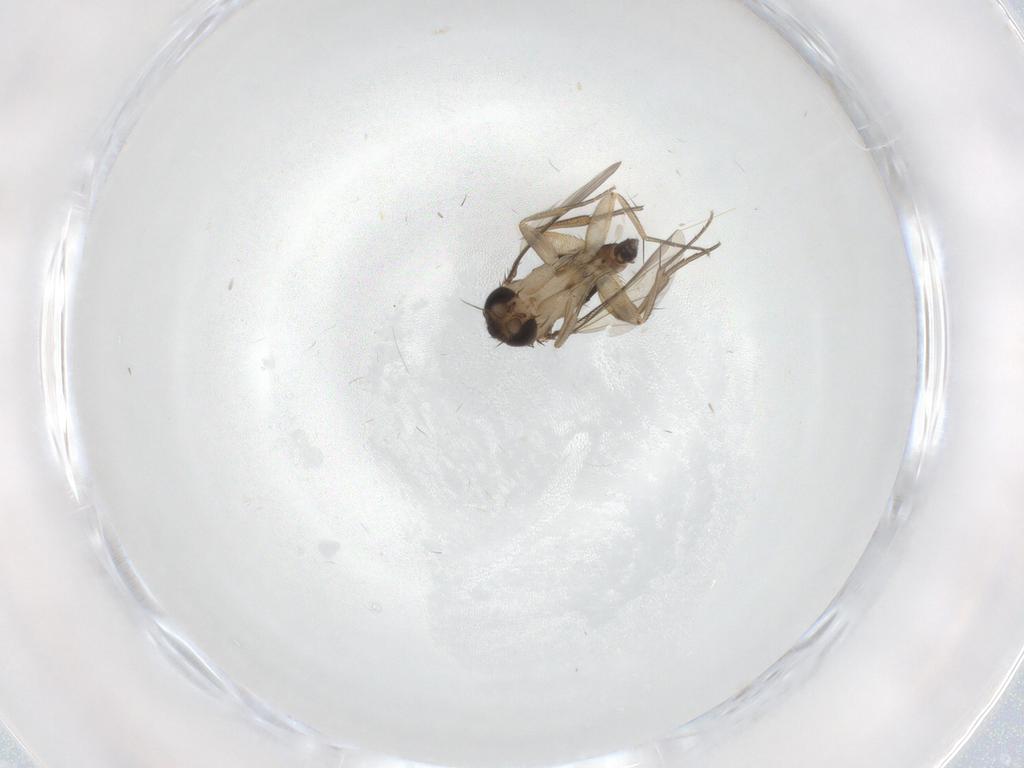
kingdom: Animalia
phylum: Arthropoda
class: Insecta
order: Diptera
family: Phoridae
